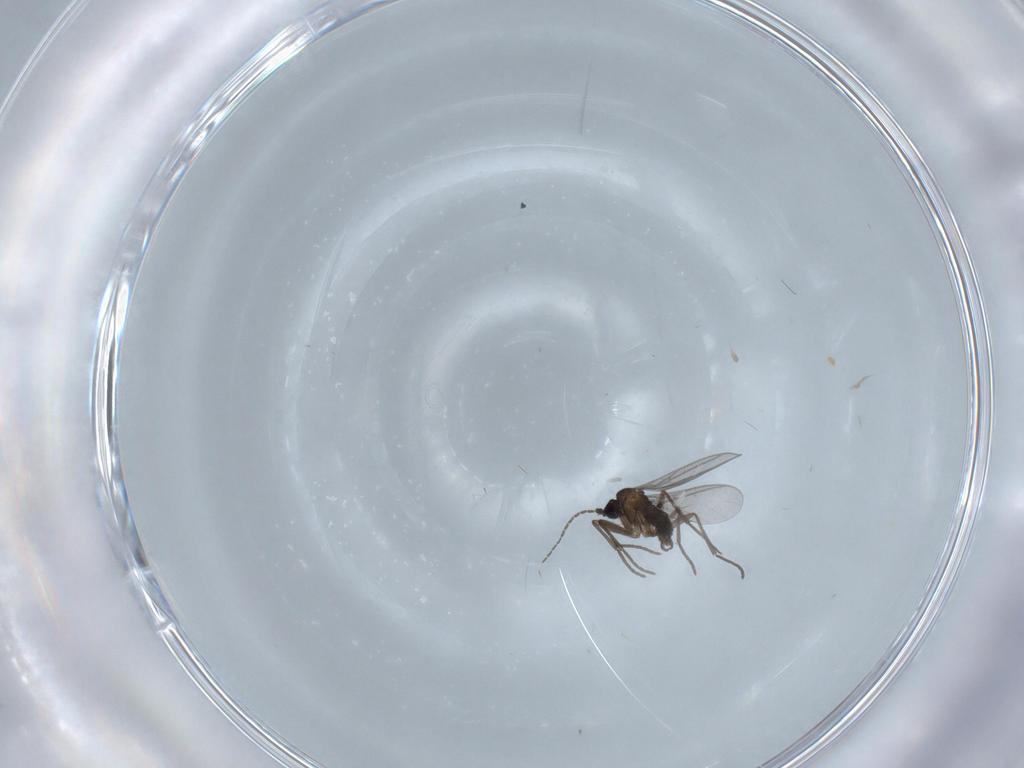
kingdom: Animalia
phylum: Arthropoda
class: Insecta
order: Diptera
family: Sciaridae
